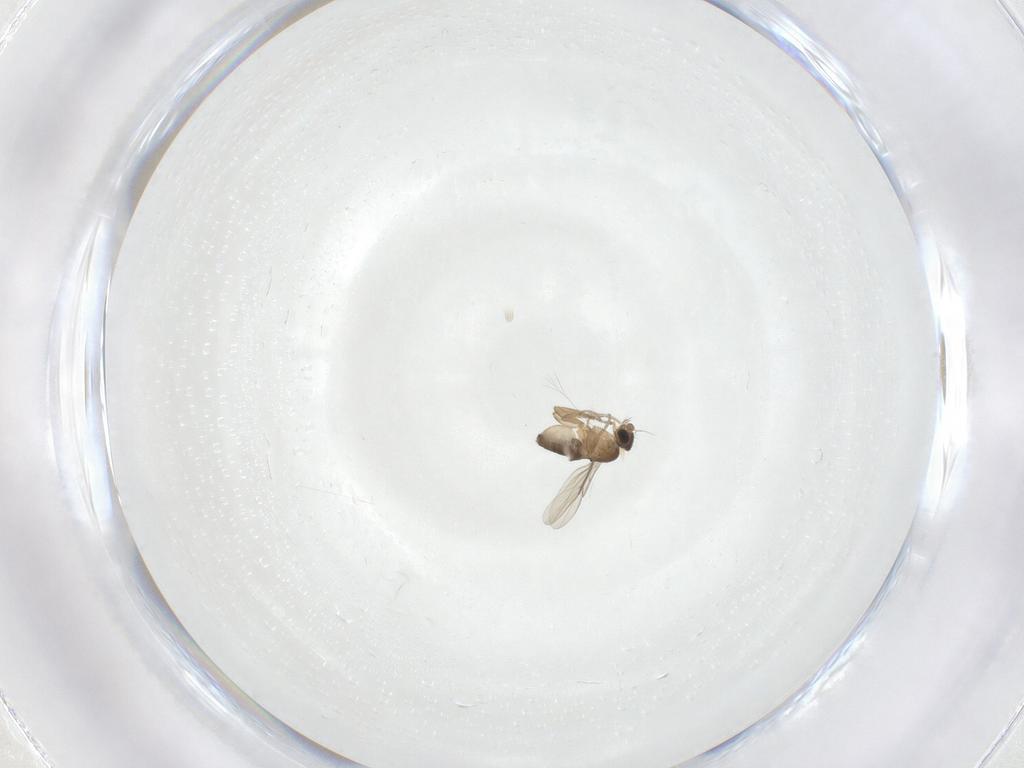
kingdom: Animalia
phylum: Arthropoda
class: Insecta
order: Diptera
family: Phoridae
